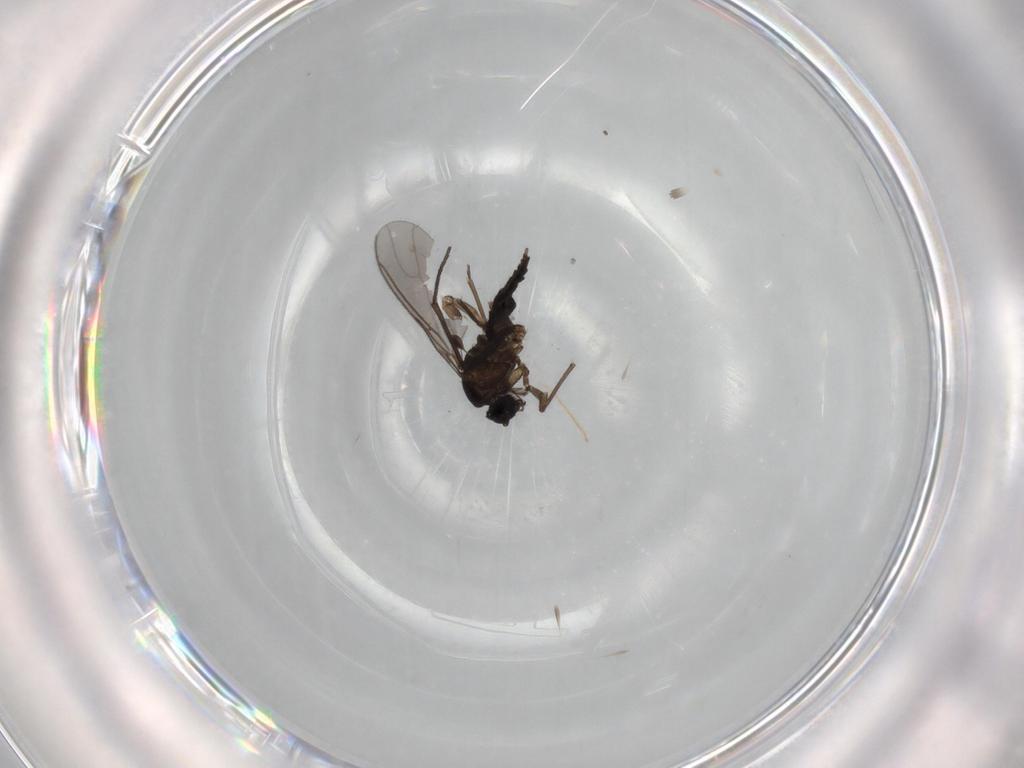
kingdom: Animalia
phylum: Arthropoda
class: Insecta
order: Diptera
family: Sciaridae
